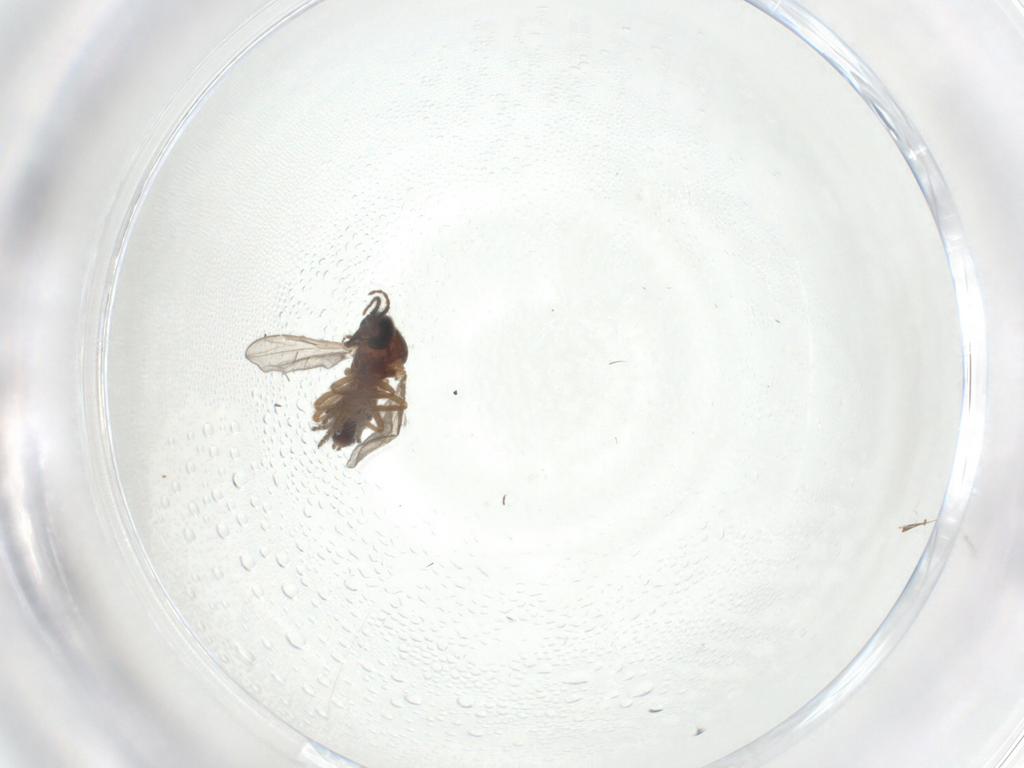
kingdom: Animalia
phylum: Arthropoda
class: Insecta
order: Diptera
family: Ceratopogonidae
